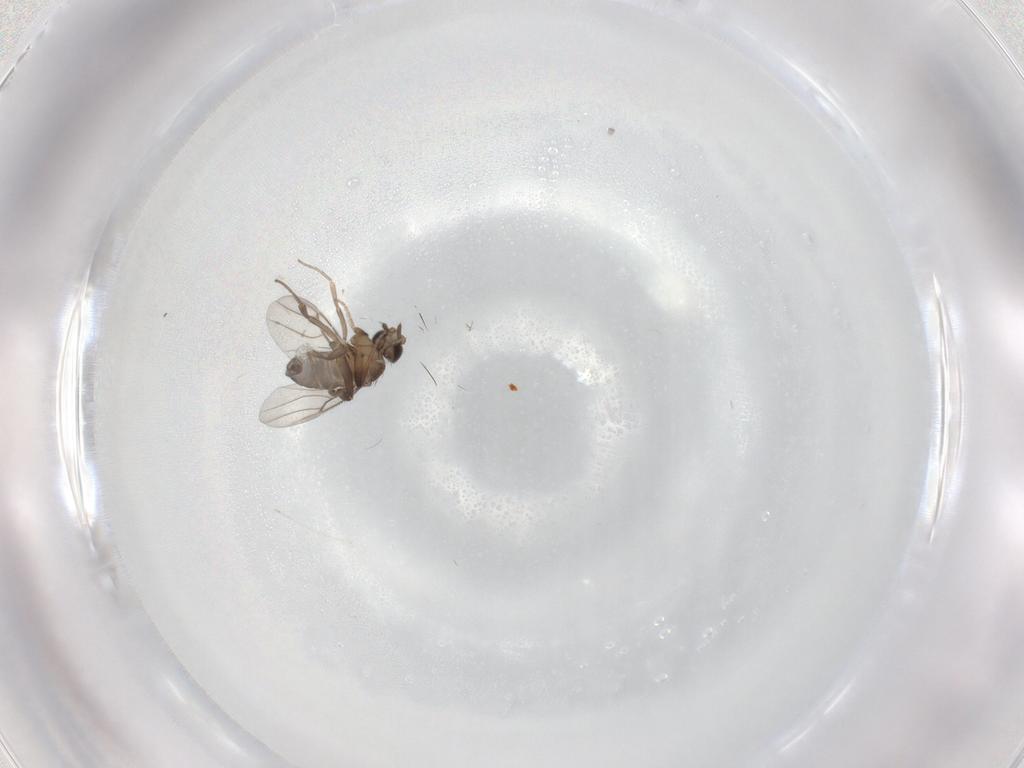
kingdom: Animalia
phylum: Arthropoda
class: Insecta
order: Diptera
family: Phoridae
